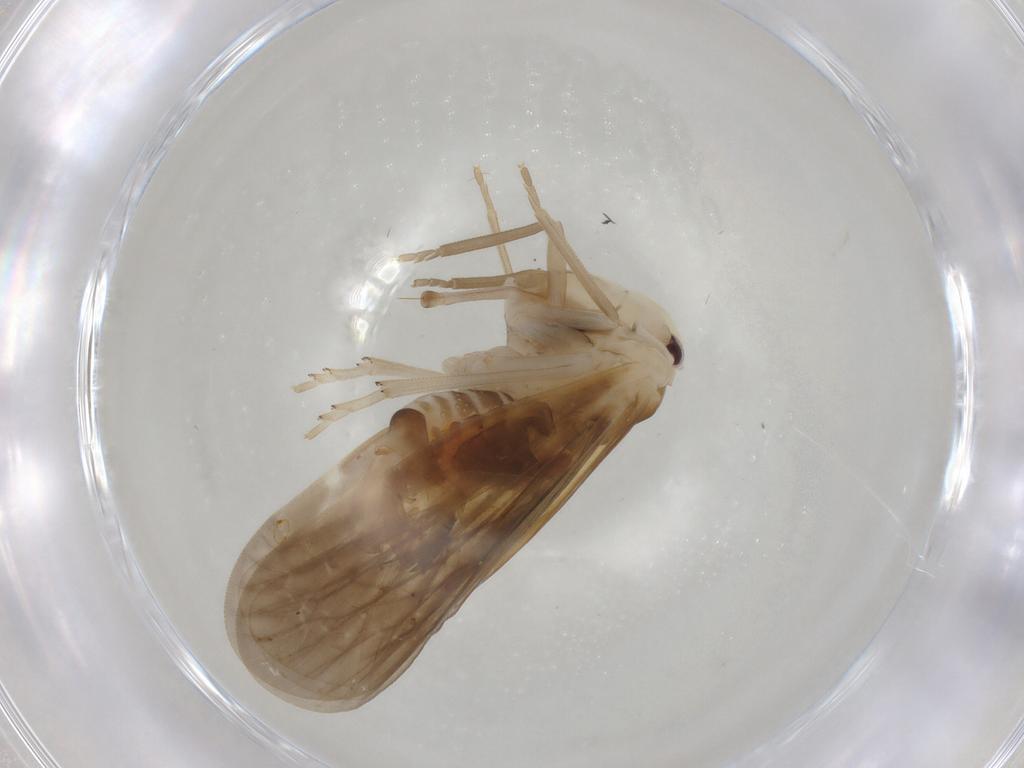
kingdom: Animalia
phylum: Arthropoda
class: Insecta
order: Hemiptera
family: Derbidae
